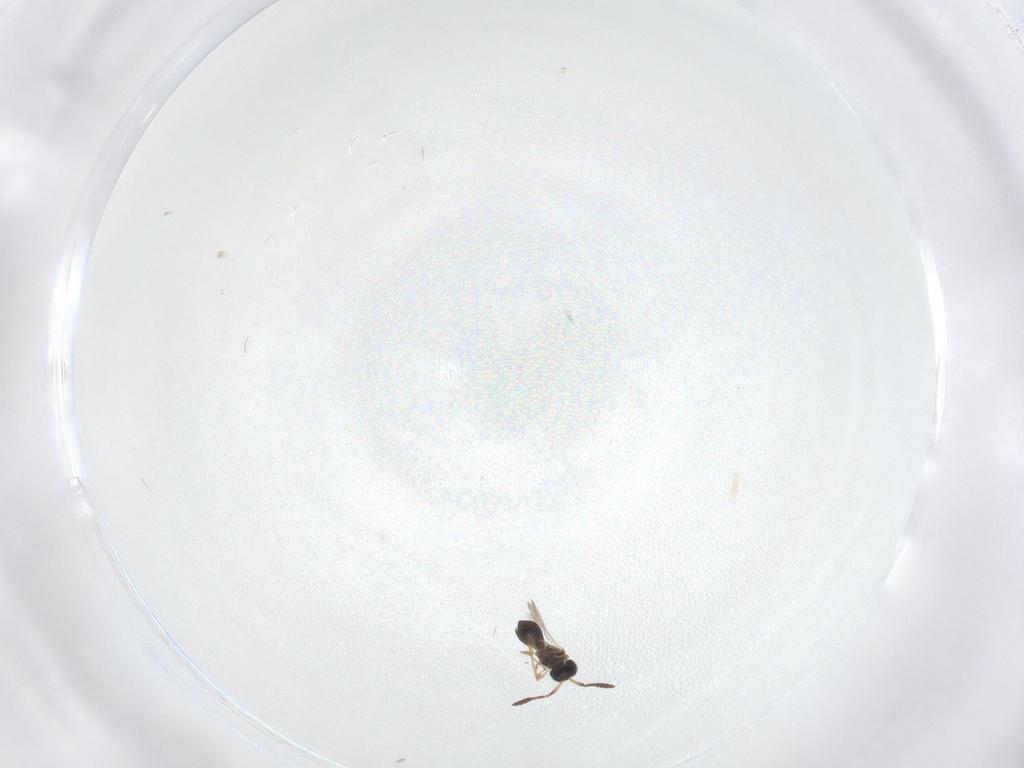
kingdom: Animalia
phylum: Arthropoda
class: Insecta
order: Hymenoptera
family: Scelionidae
